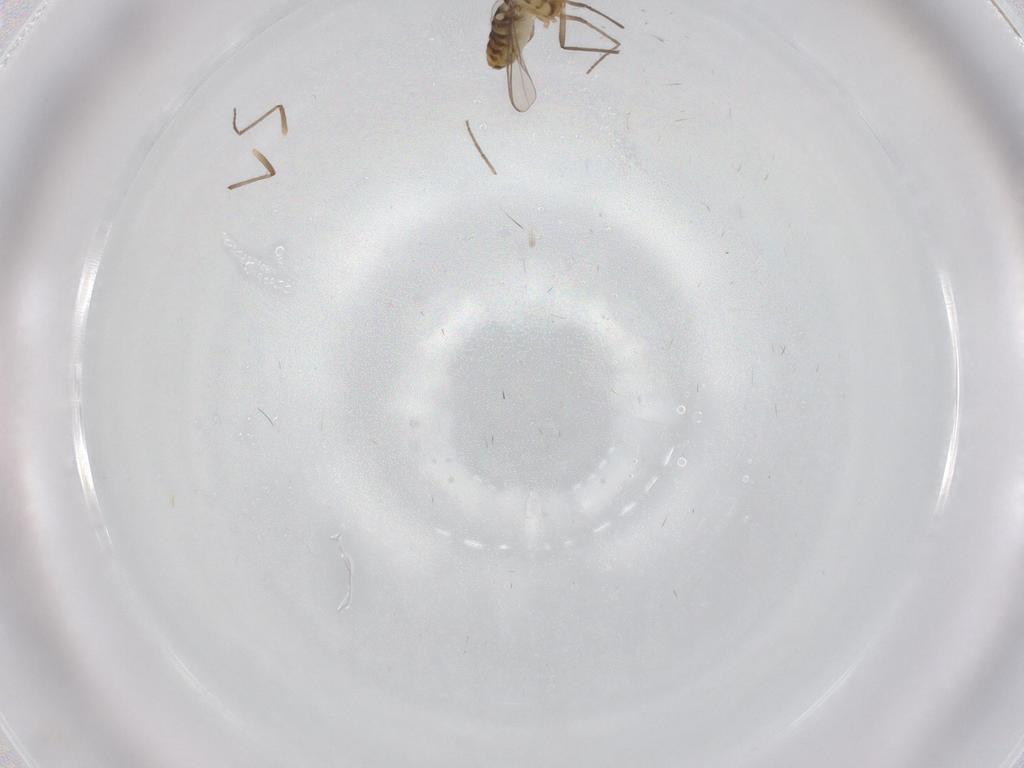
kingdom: Animalia
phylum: Arthropoda
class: Insecta
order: Diptera
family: Chironomidae
